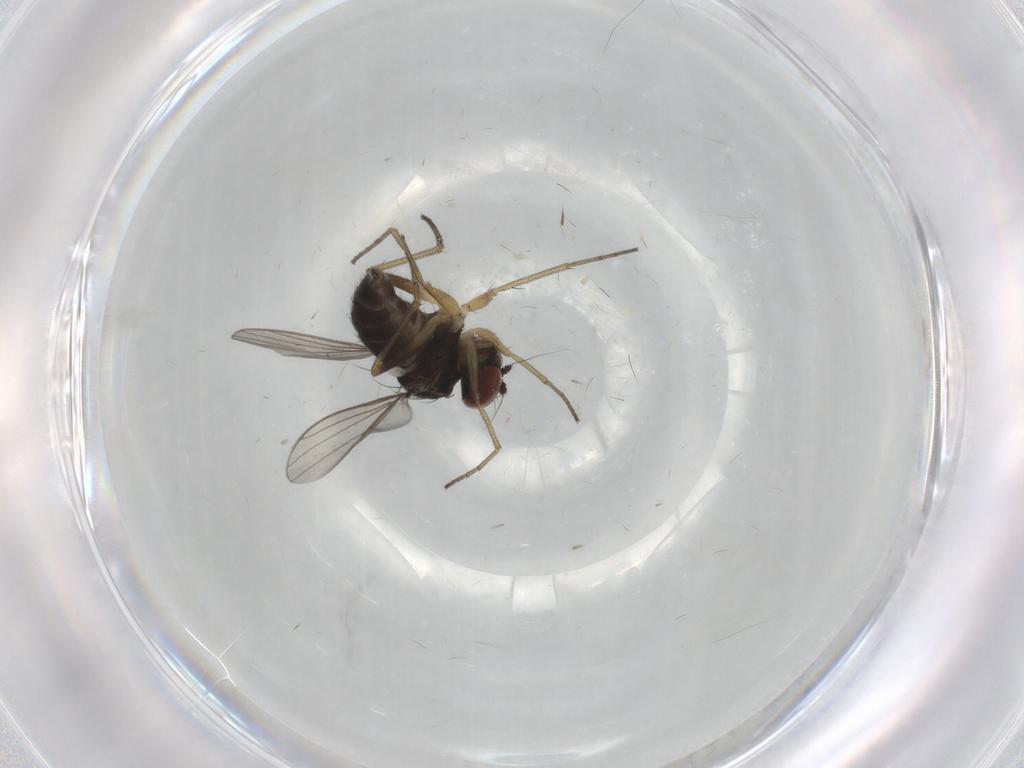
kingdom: Animalia
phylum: Arthropoda
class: Insecta
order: Diptera
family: Dolichopodidae
